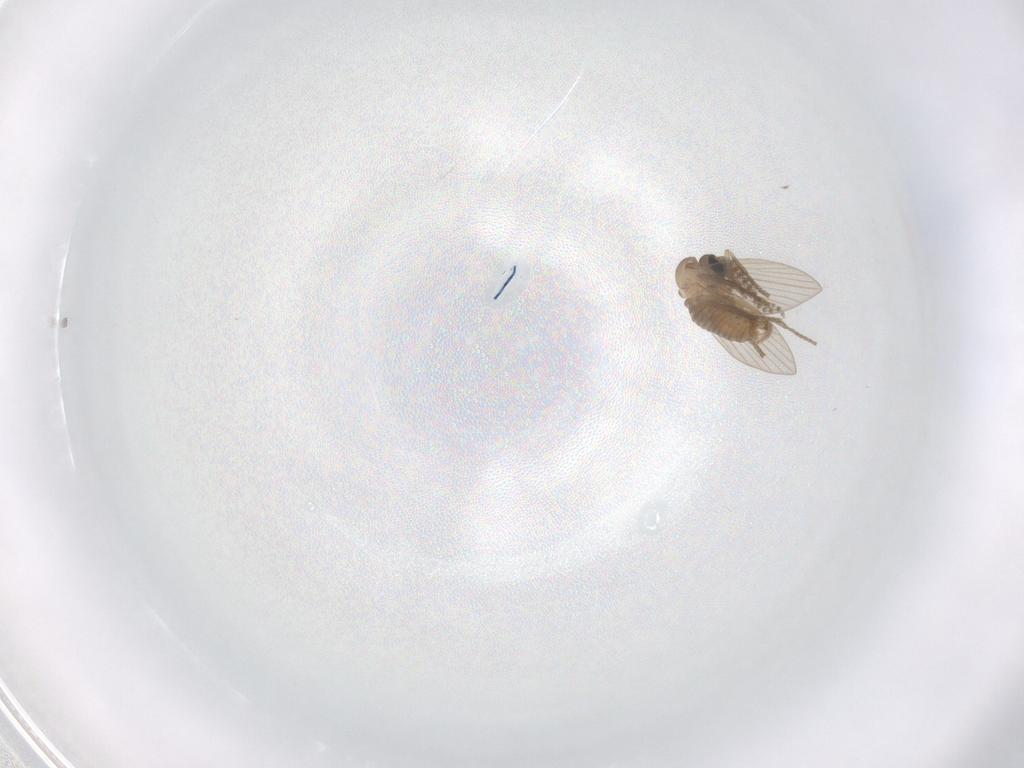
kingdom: Animalia
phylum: Arthropoda
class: Insecta
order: Diptera
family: Psychodidae
